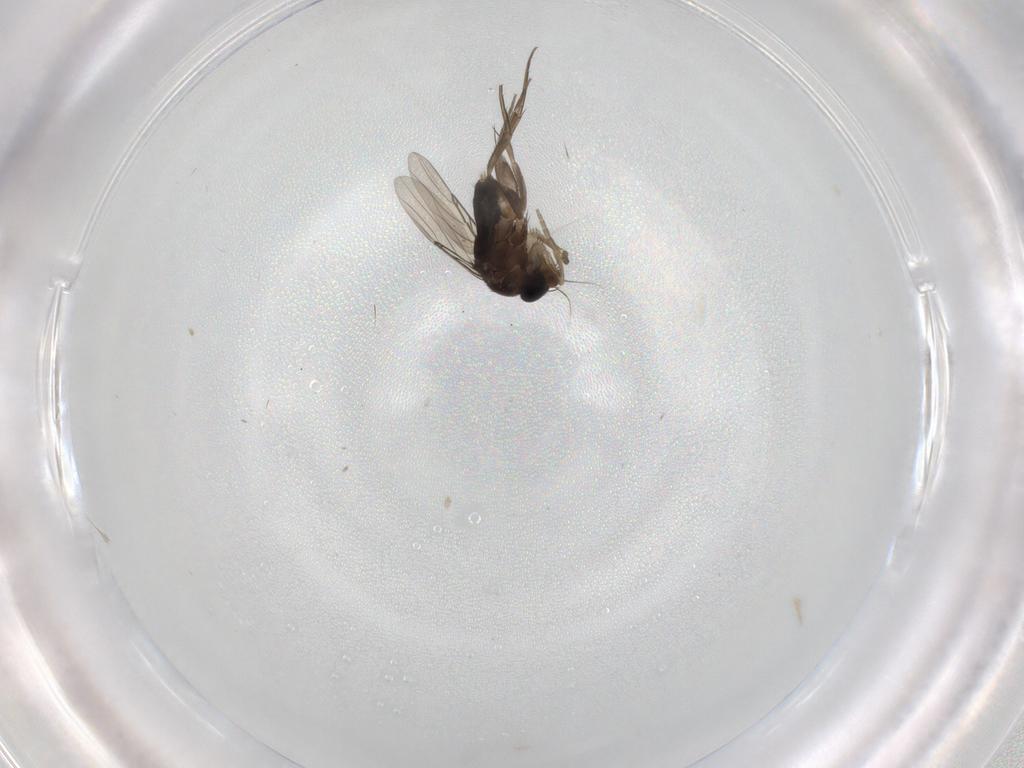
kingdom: Animalia
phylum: Arthropoda
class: Insecta
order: Diptera
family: Phoridae
